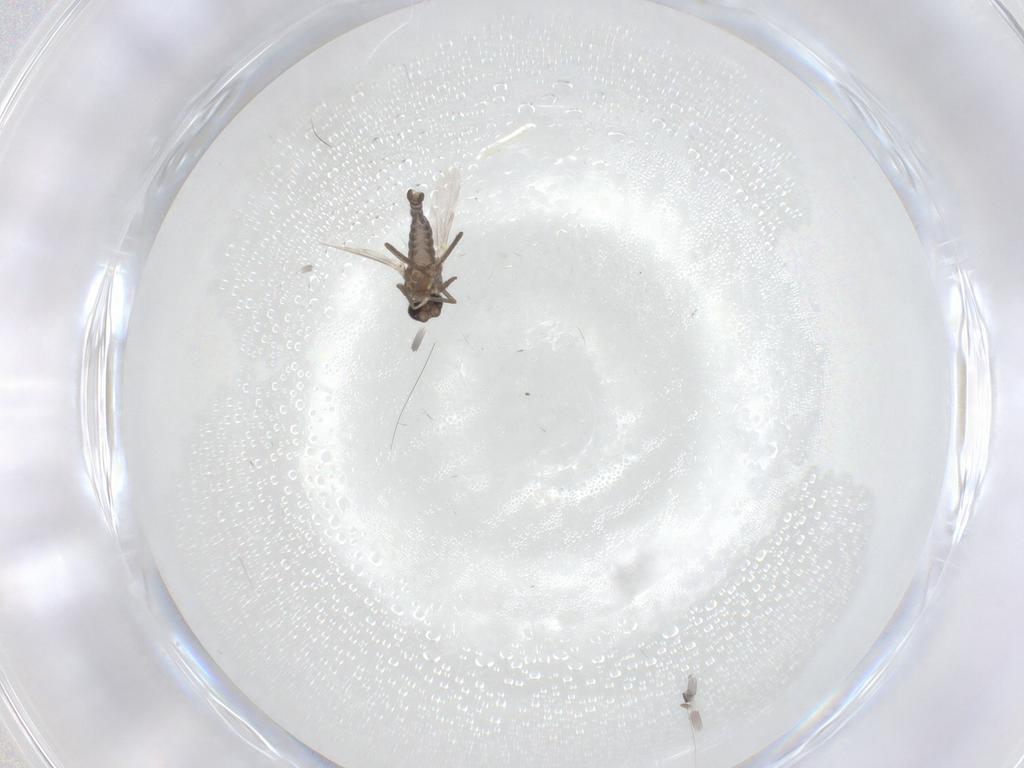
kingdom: Animalia
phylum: Arthropoda
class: Insecta
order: Diptera
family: Ceratopogonidae
